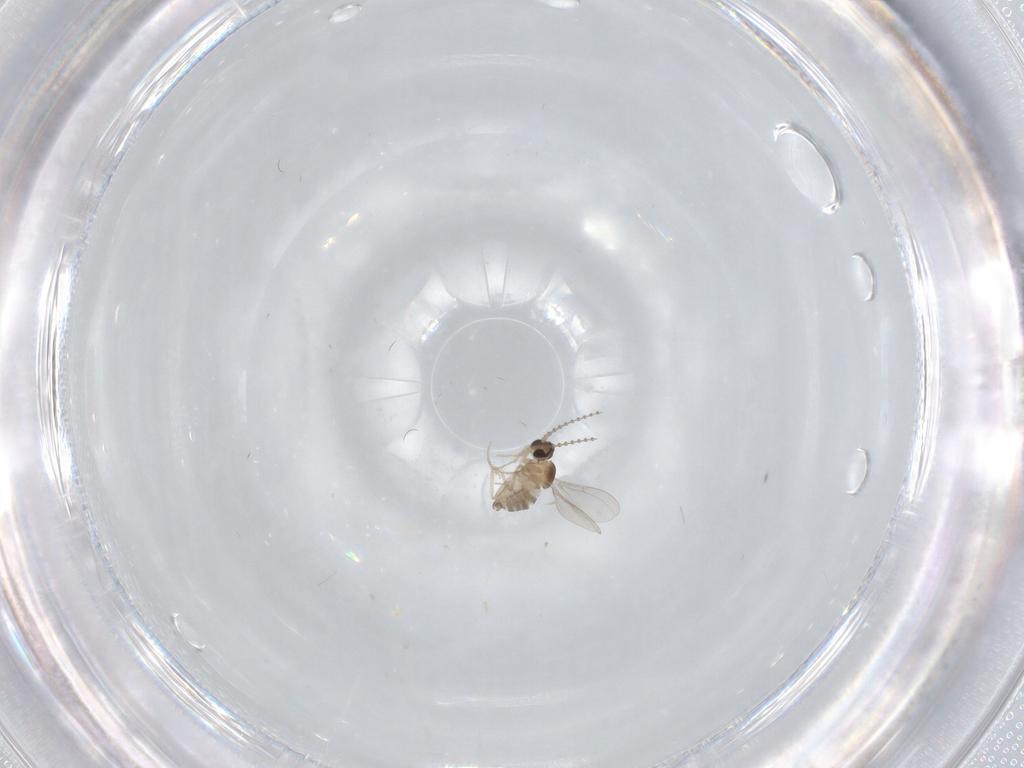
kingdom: Animalia
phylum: Arthropoda
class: Insecta
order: Diptera
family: Cecidomyiidae
